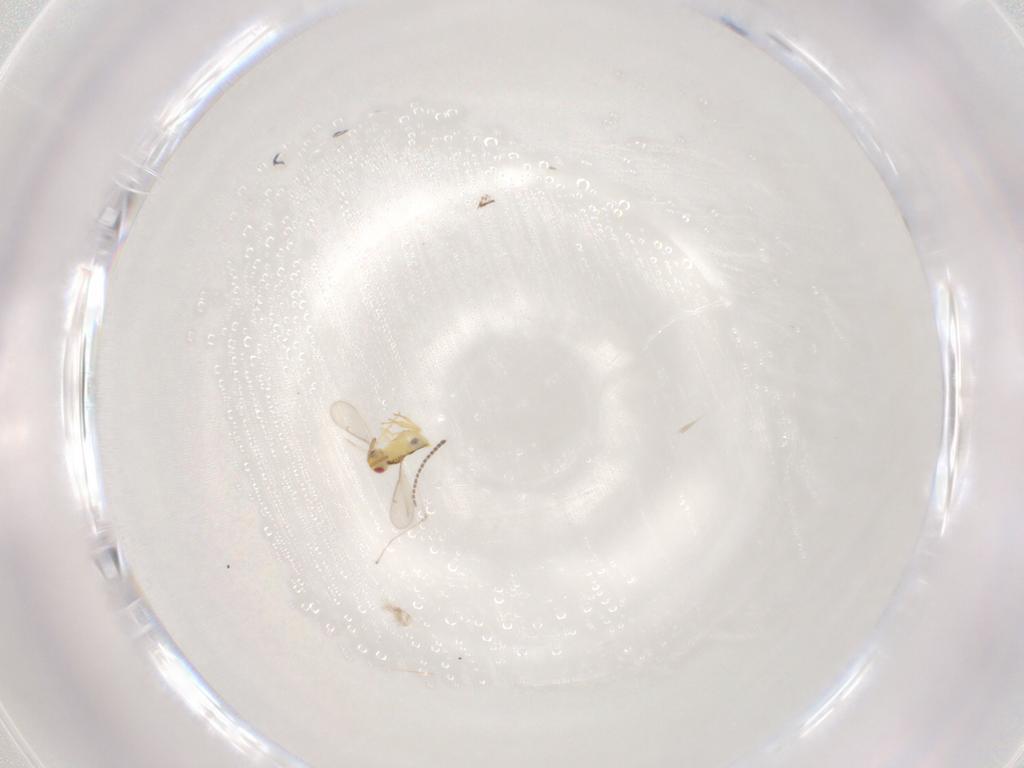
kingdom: Animalia
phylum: Arthropoda
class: Insecta
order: Hymenoptera
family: Aphelinidae
